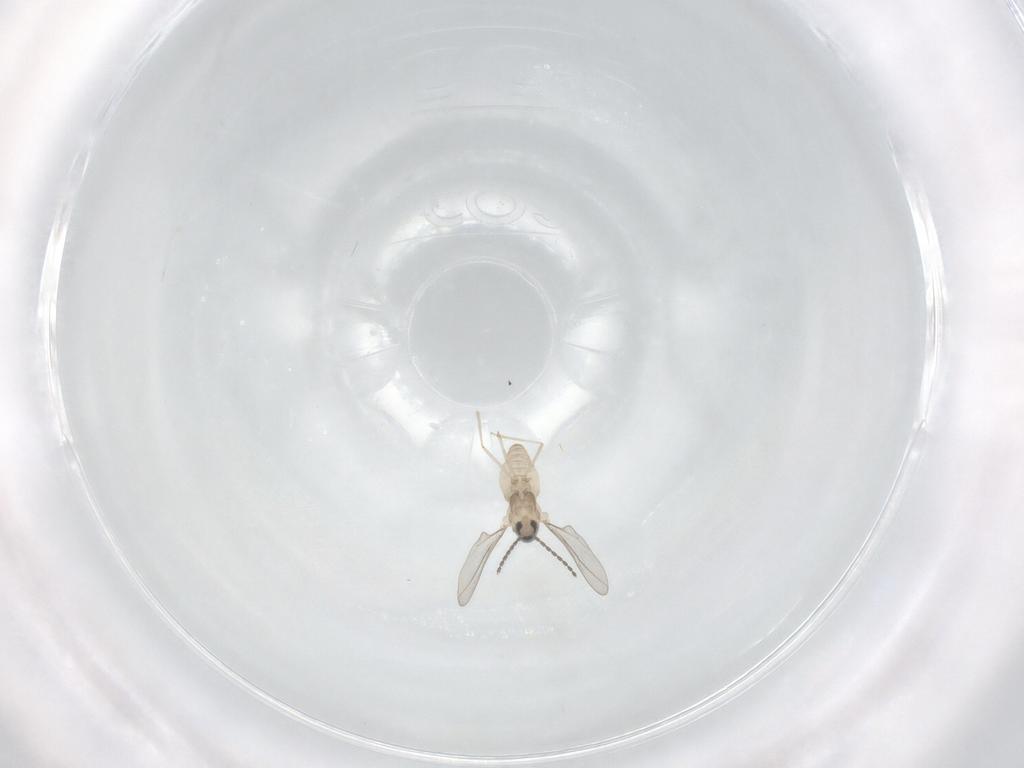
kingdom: Animalia
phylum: Arthropoda
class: Insecta
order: Diptera
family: Cecidomyiidae
